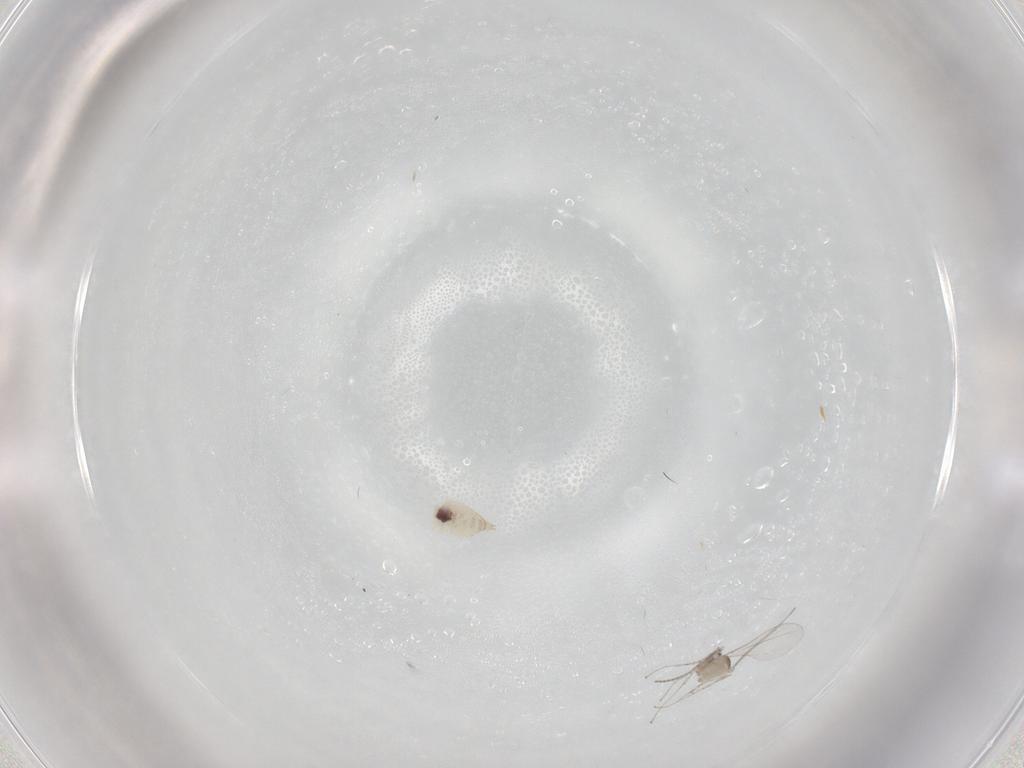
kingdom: Animalia
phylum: Arthropoda
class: Insecta
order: Diptera
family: Cecidomyiidae
